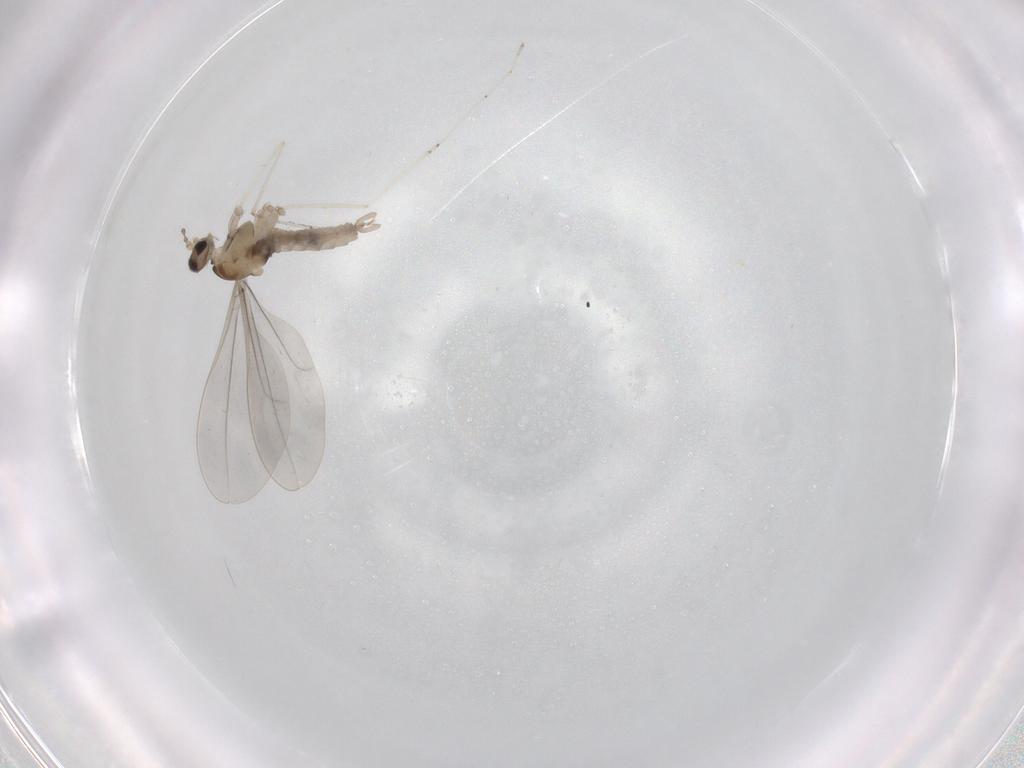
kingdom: Animalia
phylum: Arthropoda
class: Insecta
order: Diptera
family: Cecidomyiidae
